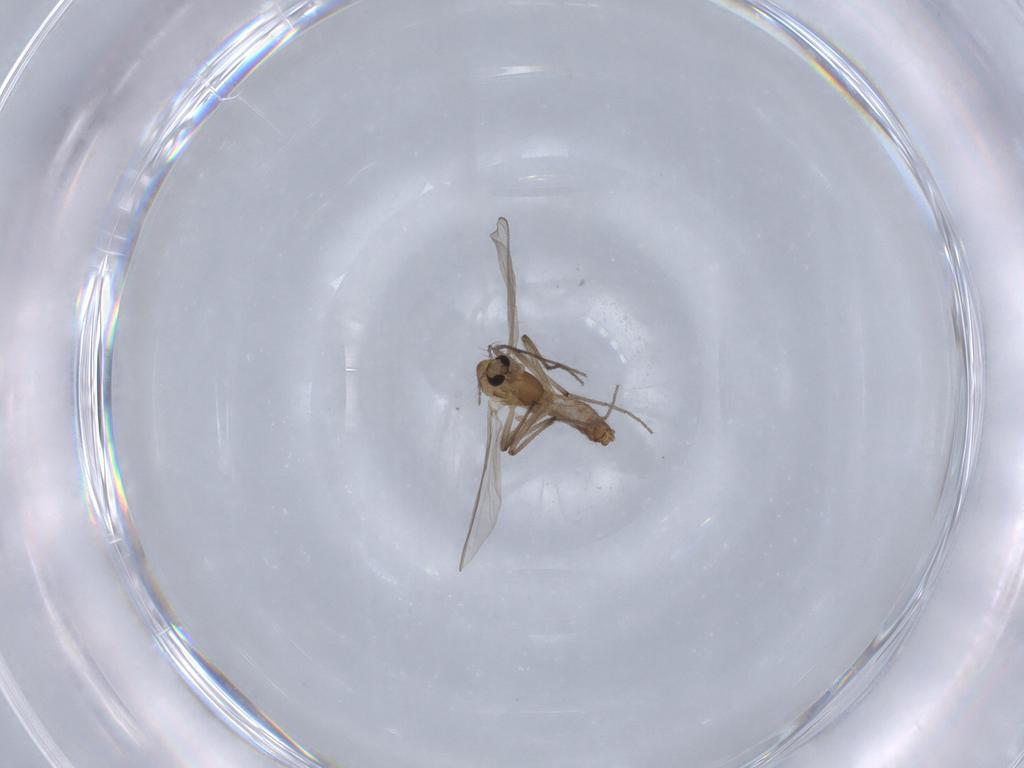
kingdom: Animalia
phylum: Arthropoda
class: Insecta
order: Diptera
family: Chironomidae
